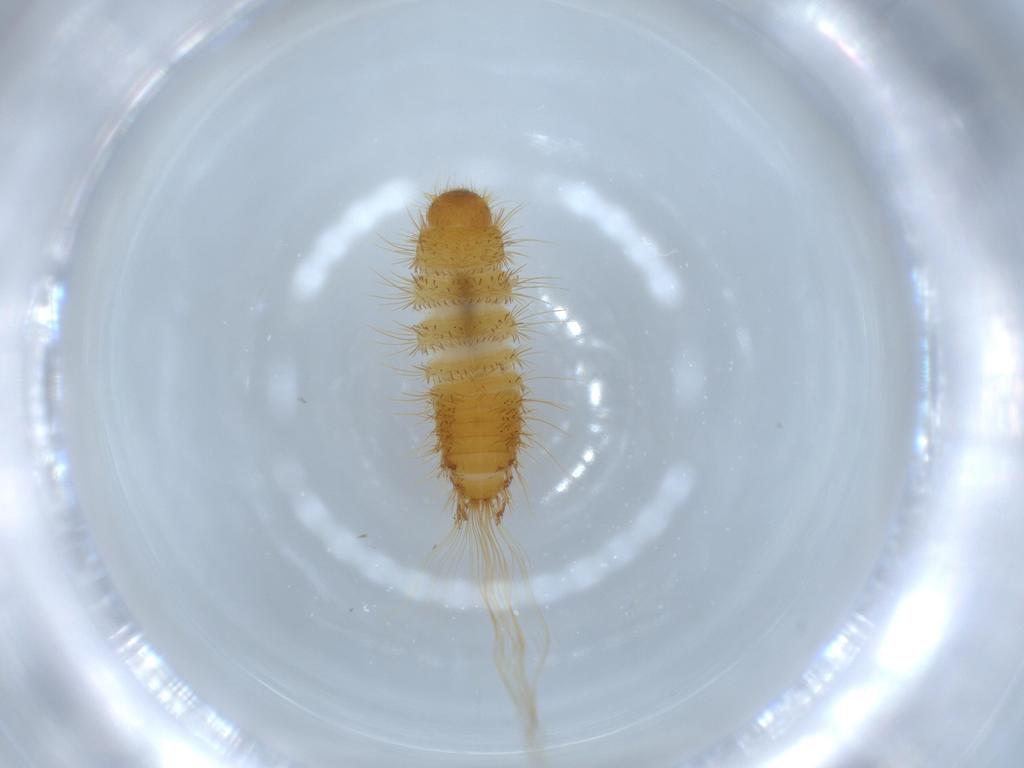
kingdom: Animalia
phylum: Arthropoda
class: Insecta
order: Coleoptera
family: Dermestidae
